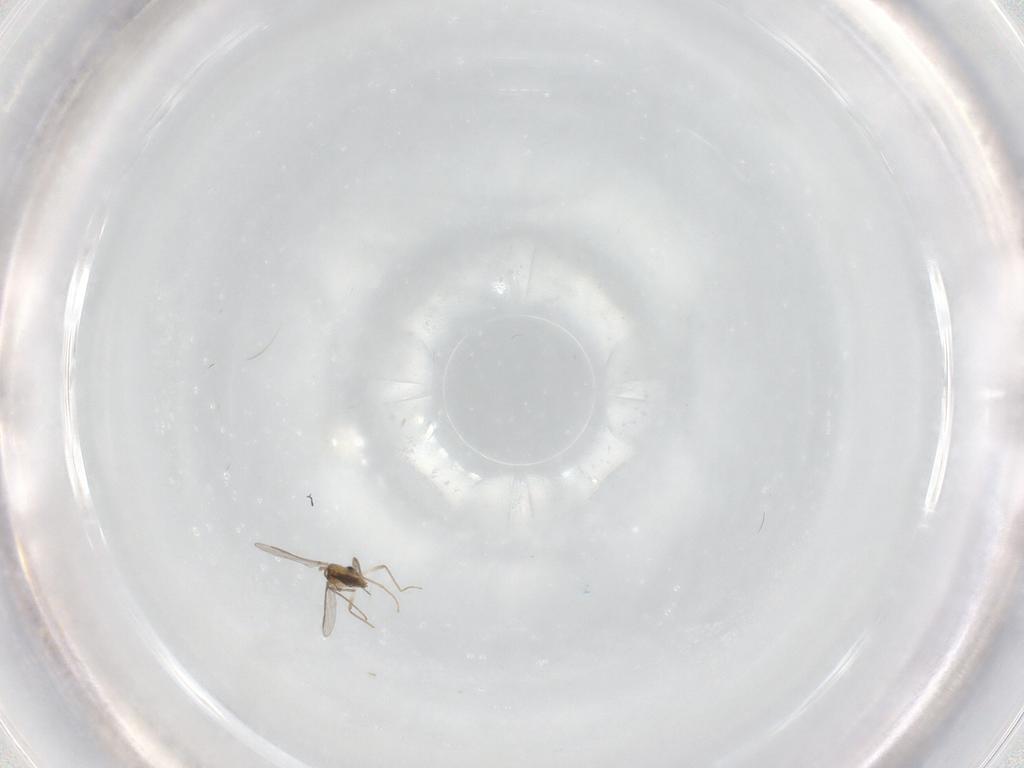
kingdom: Animalia
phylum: Arthropoda
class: Insecta
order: Diptera
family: Chironomidae
